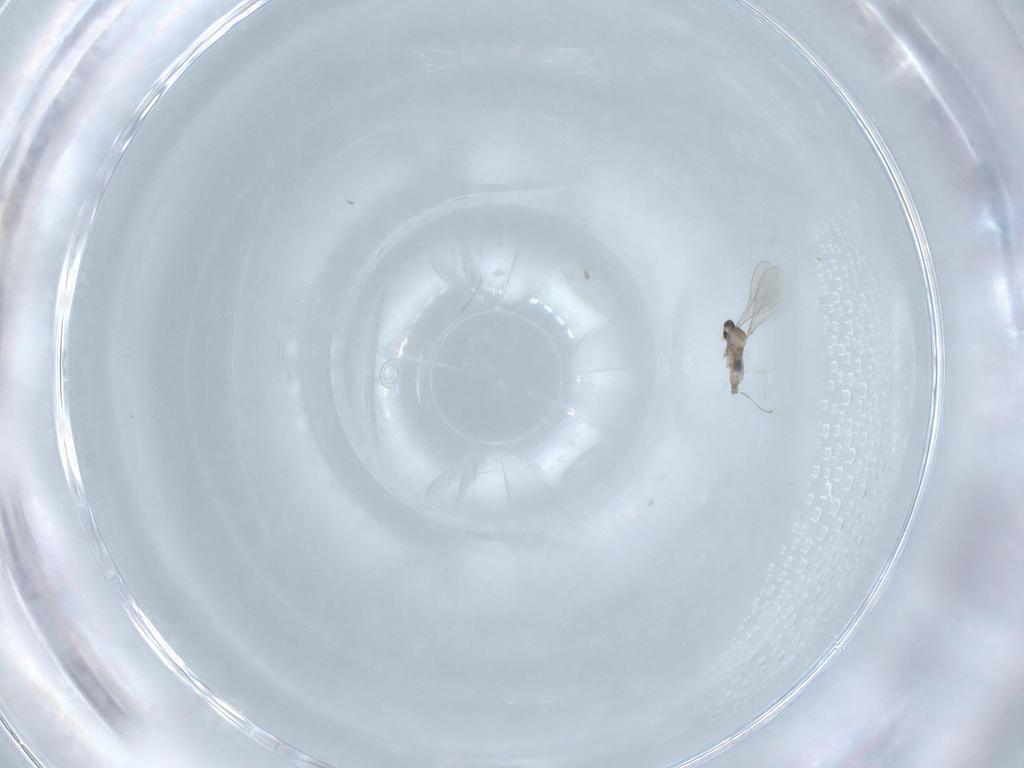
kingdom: Animalia
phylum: Arthropoda
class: Insecta
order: Diptera
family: Cecidomyiidae
